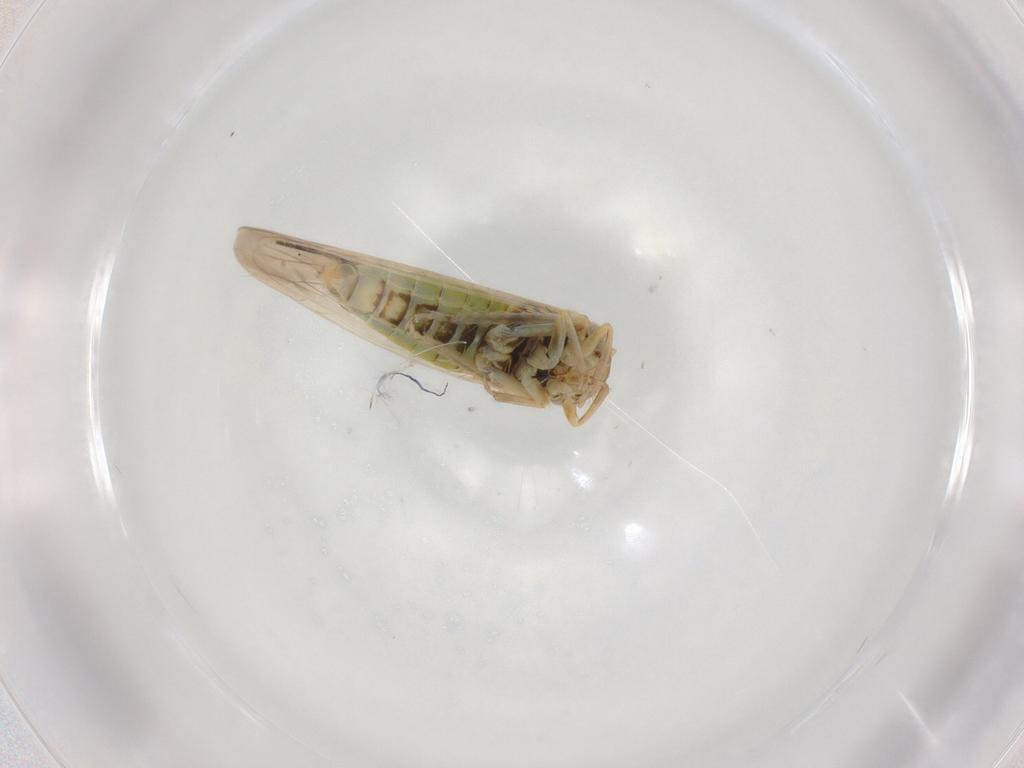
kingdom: Animalia
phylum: Arthropoda
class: Insecta
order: Hemiptera
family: Cicadellidae
